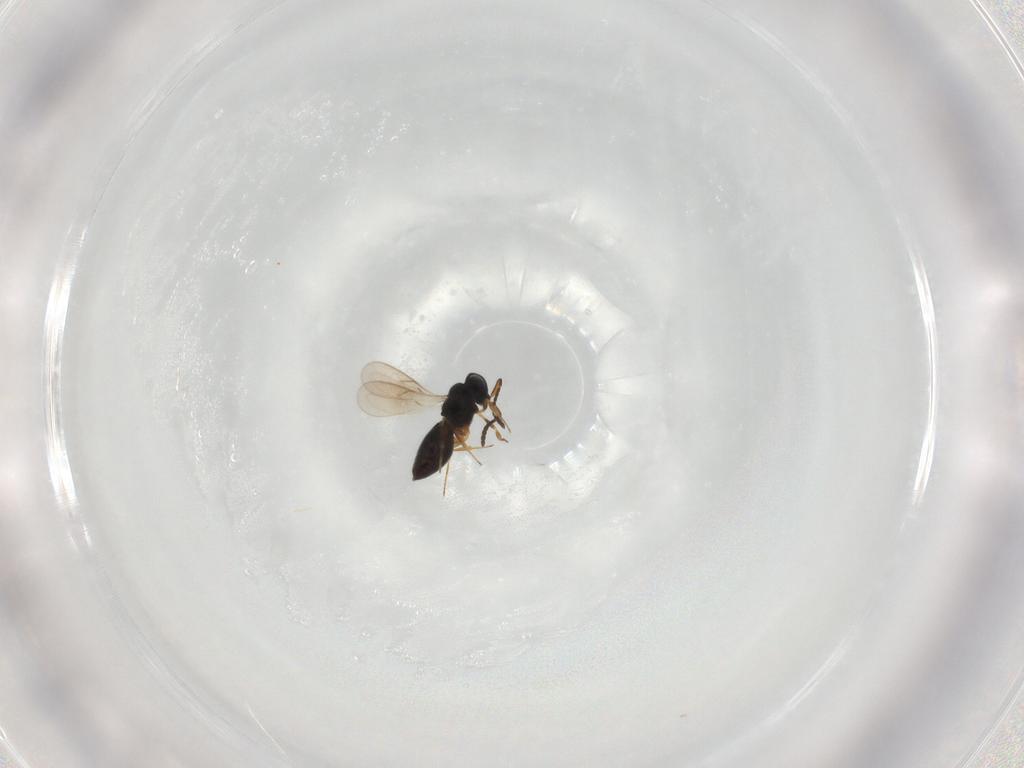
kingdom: Animalia
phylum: Arthropoda
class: Insecta
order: Hymenoptera
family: Scelionidae
